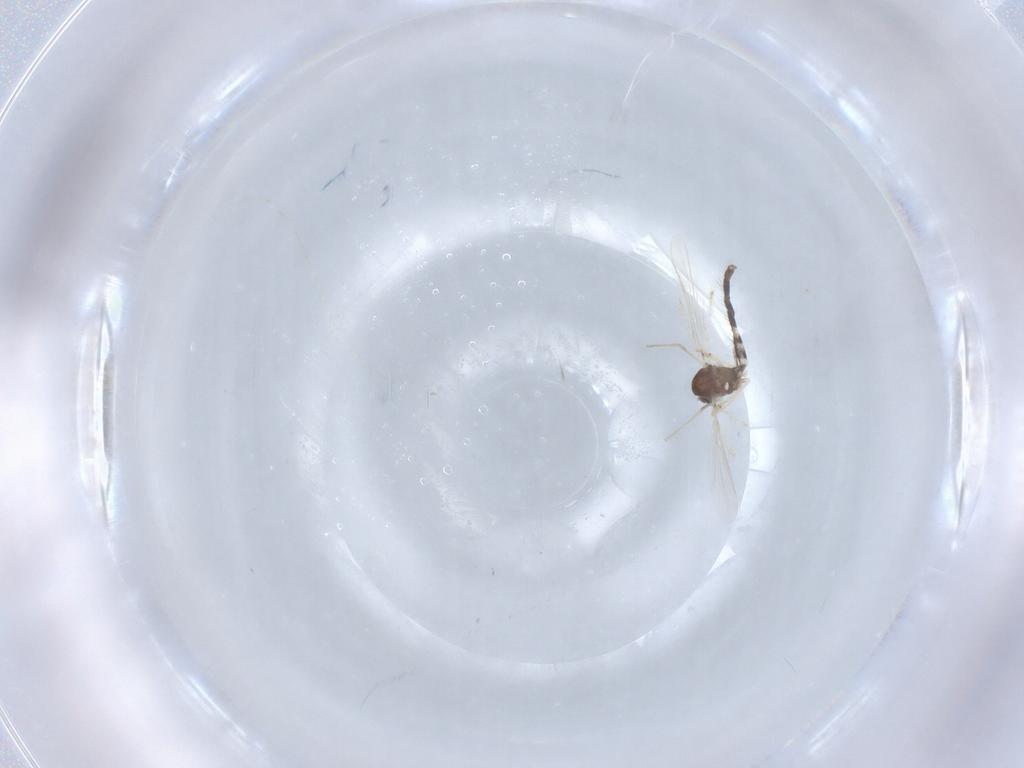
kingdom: Animalia
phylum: Arthropoda
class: Insecta
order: Diptera
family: Chironomidae
